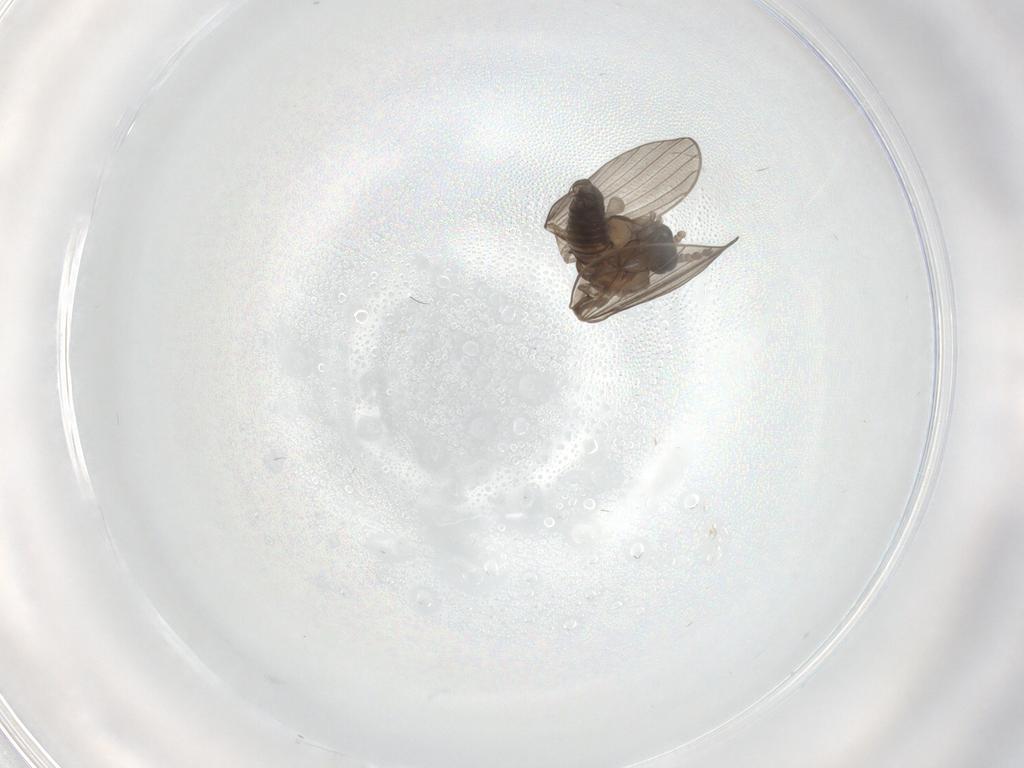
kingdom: Animalia
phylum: Arthropoda
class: Insecta
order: Diptera
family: Psychodidae
